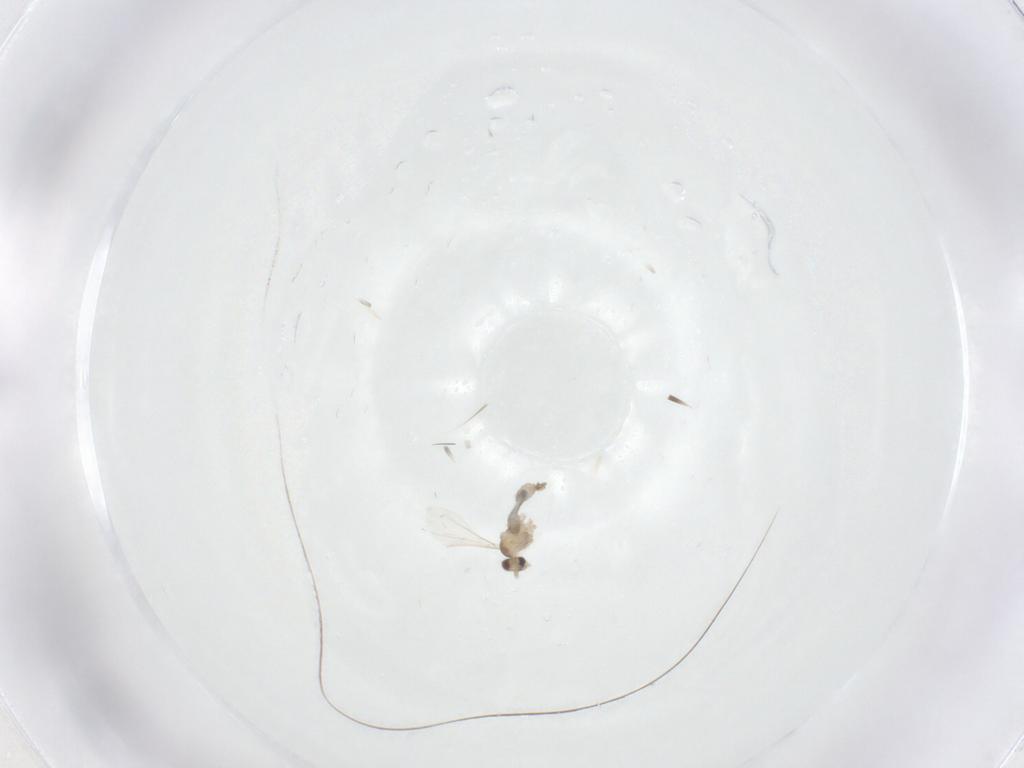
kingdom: Animalia
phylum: Arthropoda
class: Insecta
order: Diptera
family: Cecidomyiidae
